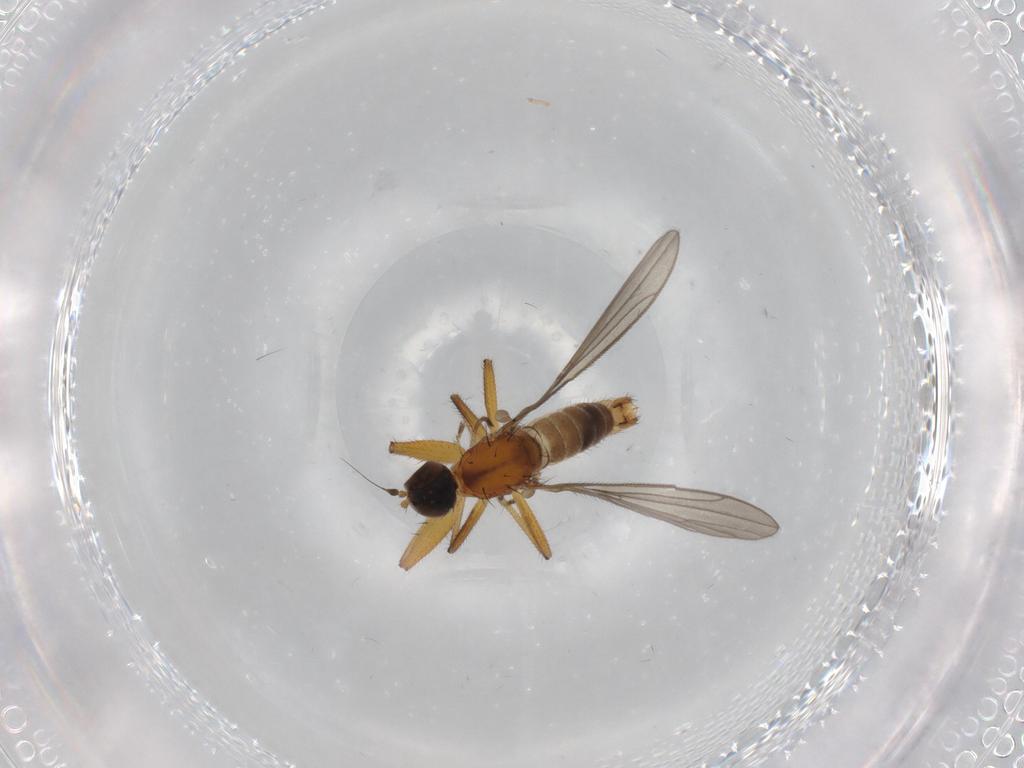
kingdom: Animalia
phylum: Arthropoda
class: Insecta
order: Diptera
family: Empididae
